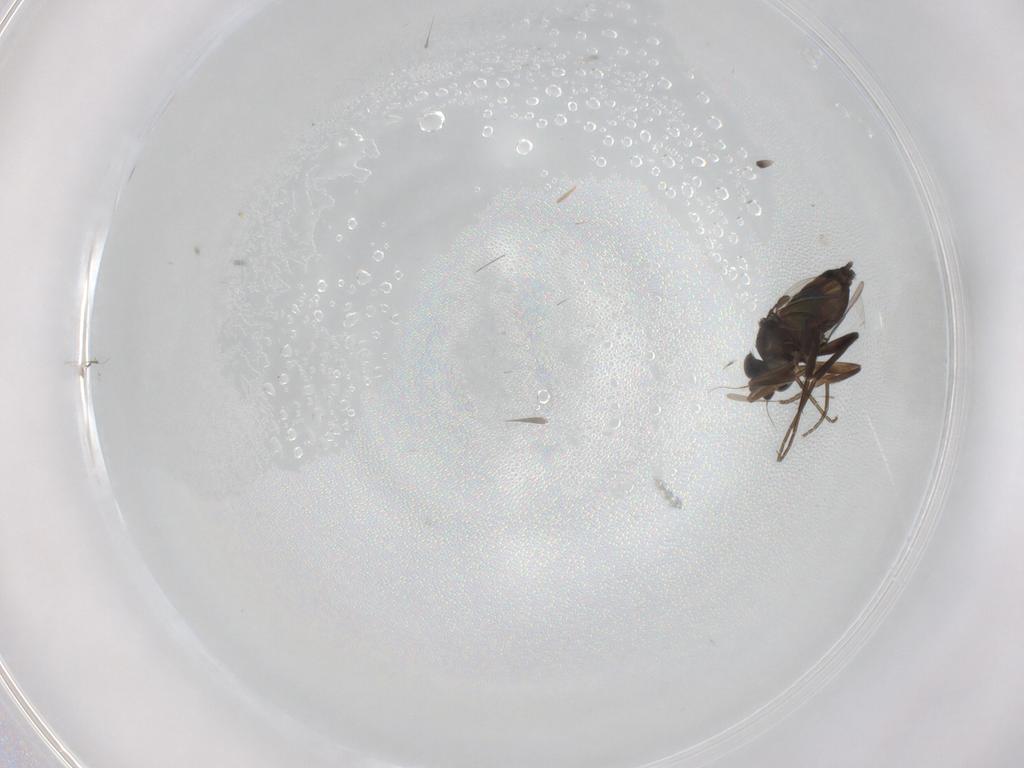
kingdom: Animalia
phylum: Arthropoda
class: Insecta
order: Diptera
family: Phoridae
